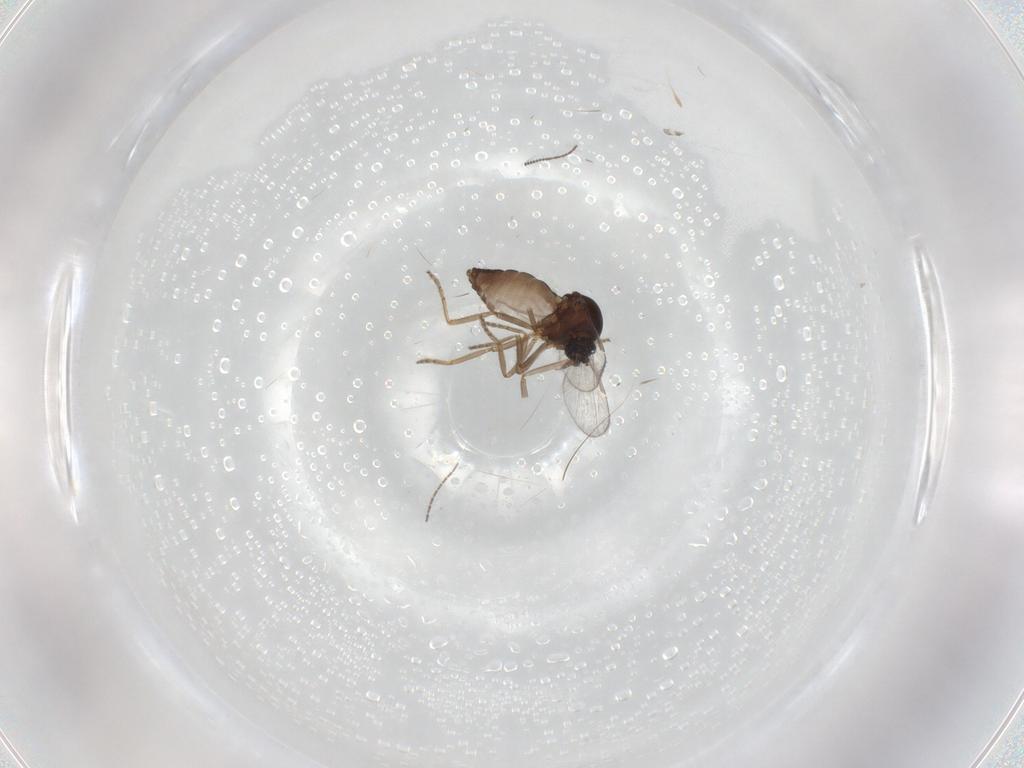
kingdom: Animalia
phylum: Arthropoda
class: Insecta
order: Diptera
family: Ceratopogonidae
